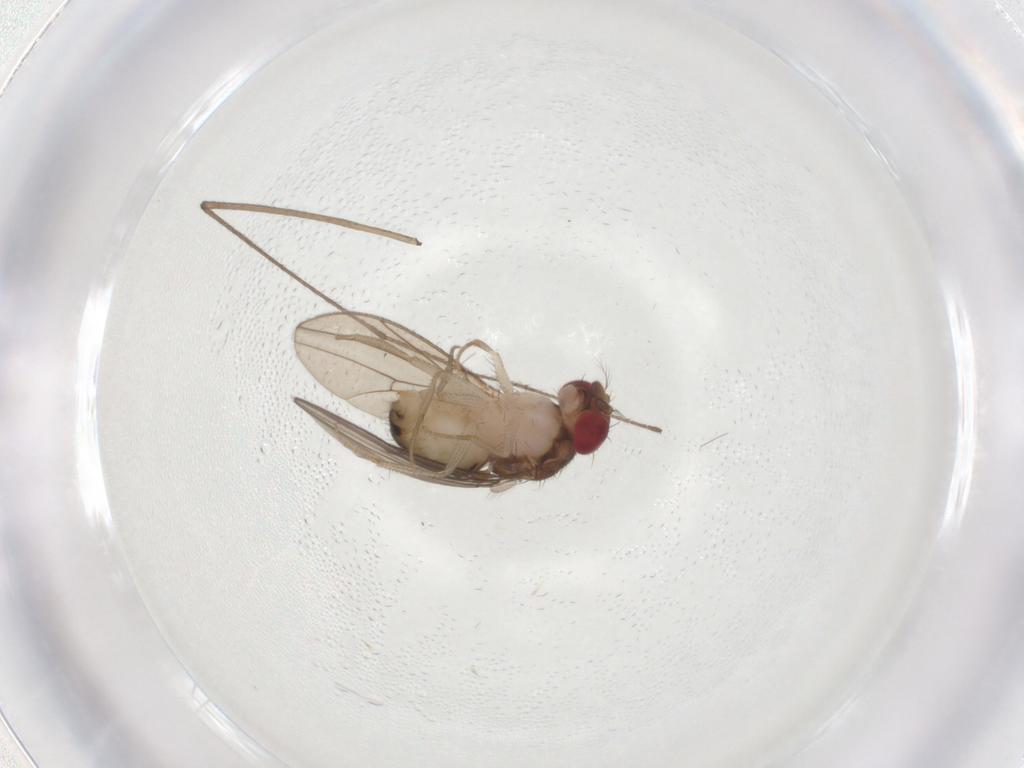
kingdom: Animalia
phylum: Arthropoda
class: Insecta
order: Diptera
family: Drosophilidae
